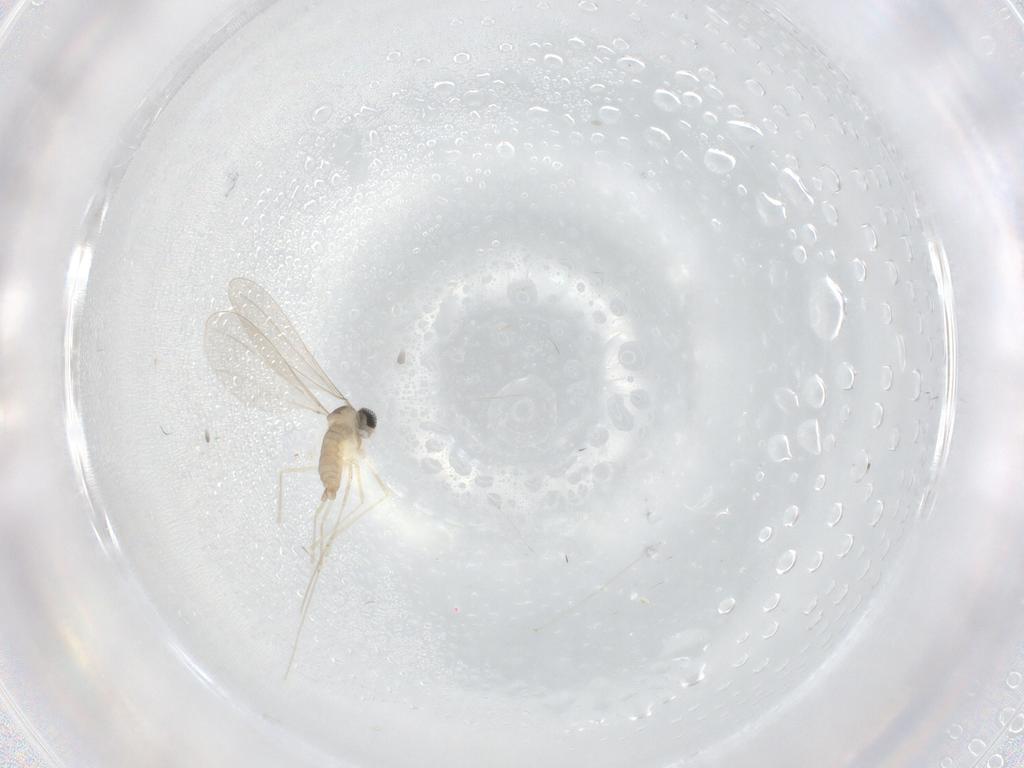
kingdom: Animalia
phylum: Arthropoda
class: Insecta
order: Diptera
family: Cecidomyiidae
